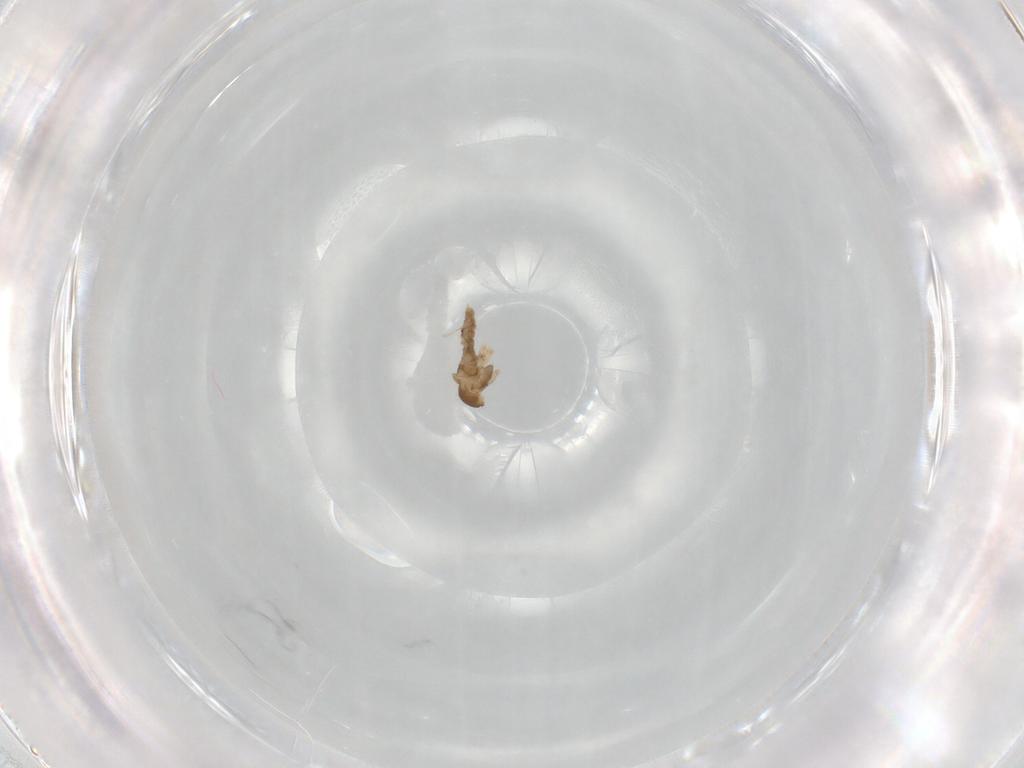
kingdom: Animalia
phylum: Arthropoda
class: Insecta
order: Diptera
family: Cecidomyiidae
